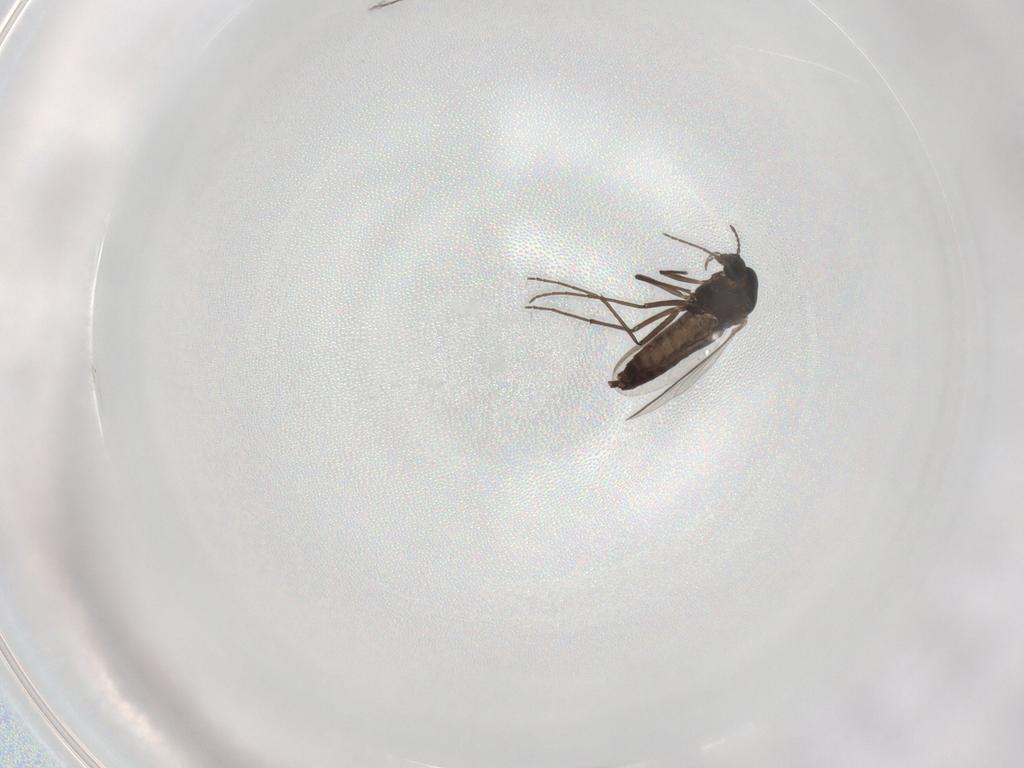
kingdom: Animalia
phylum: Arthropoda
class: Insecta
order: Diptera
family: Chironomidae
